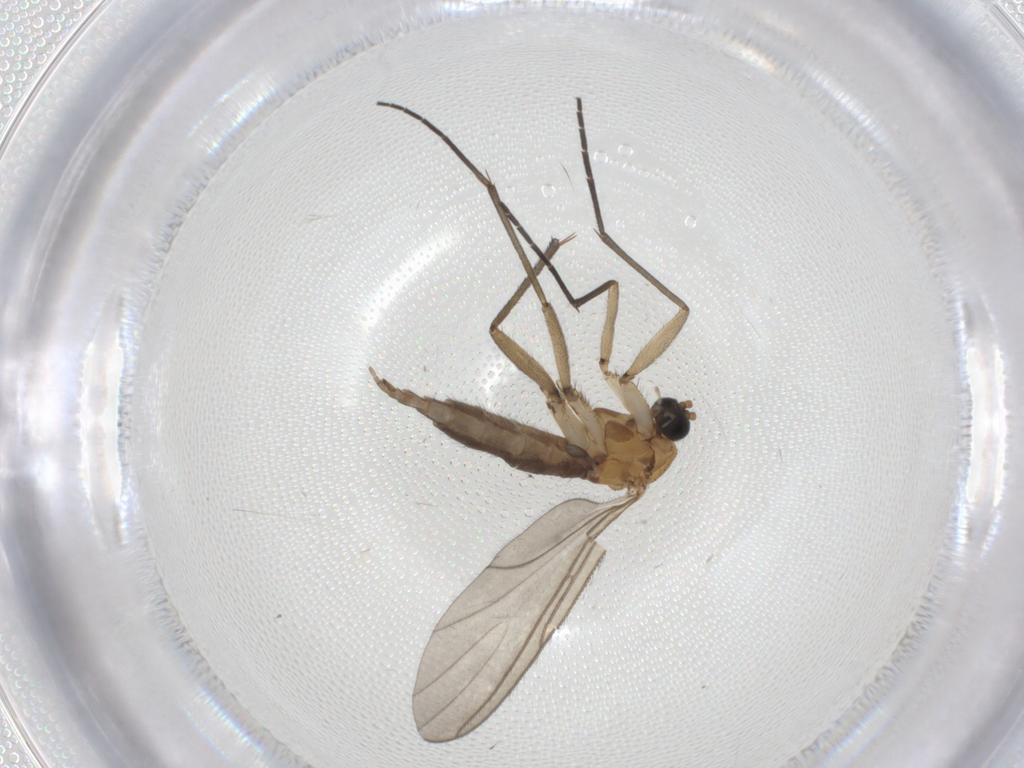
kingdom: Animalia
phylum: Arthropoda
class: Insecta
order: Diptera
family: Sciaridae
